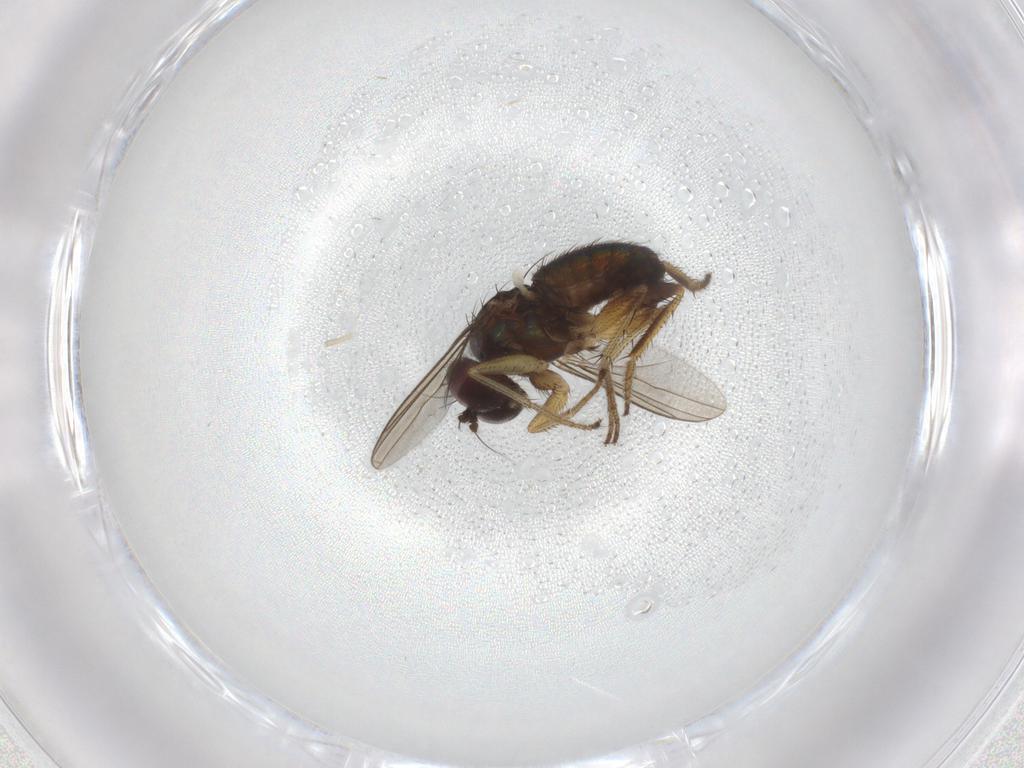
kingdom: Animalia
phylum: Arthropoda
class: Insecta
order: Diptera
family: Dolichopodidae
